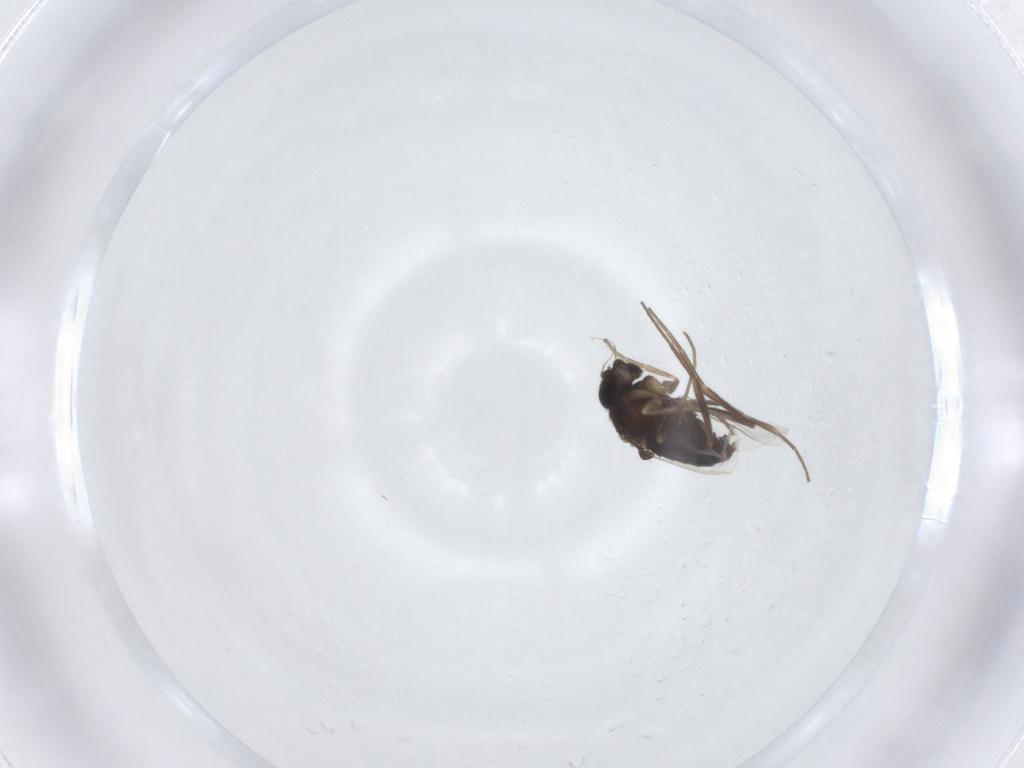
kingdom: Animalia
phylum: Arthropoda
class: Insecta
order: Diptera
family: Phoridae
